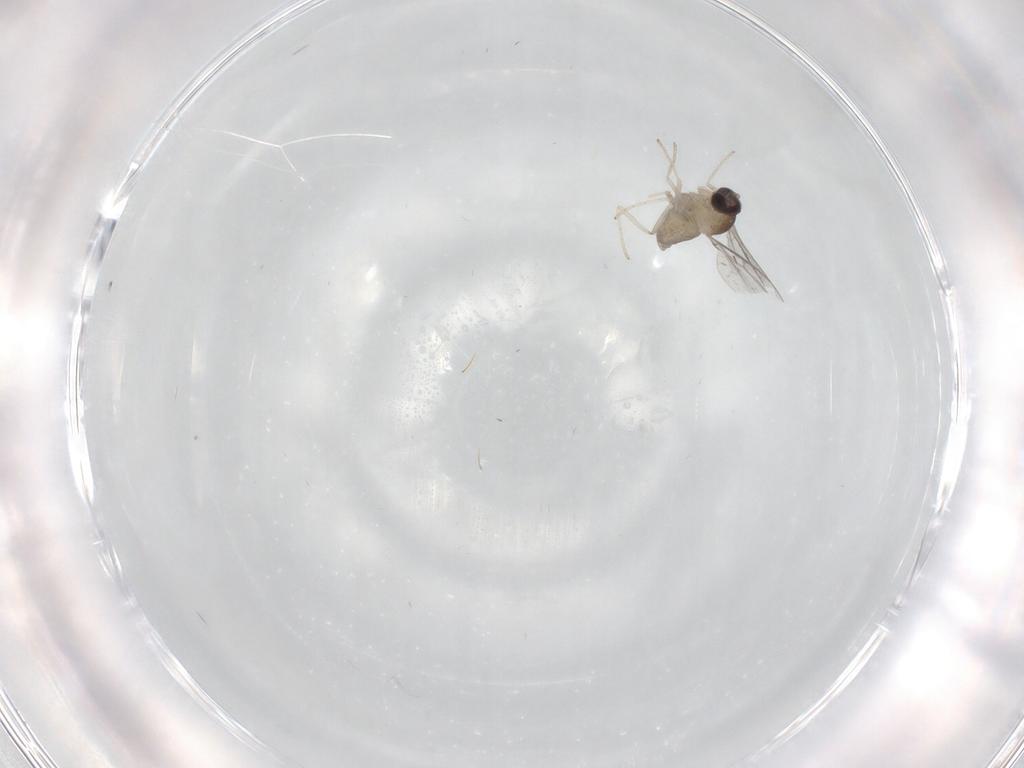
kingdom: Animalia
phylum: Arthropoda
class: Insecta
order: Diptera
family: Cecidomyiidae
